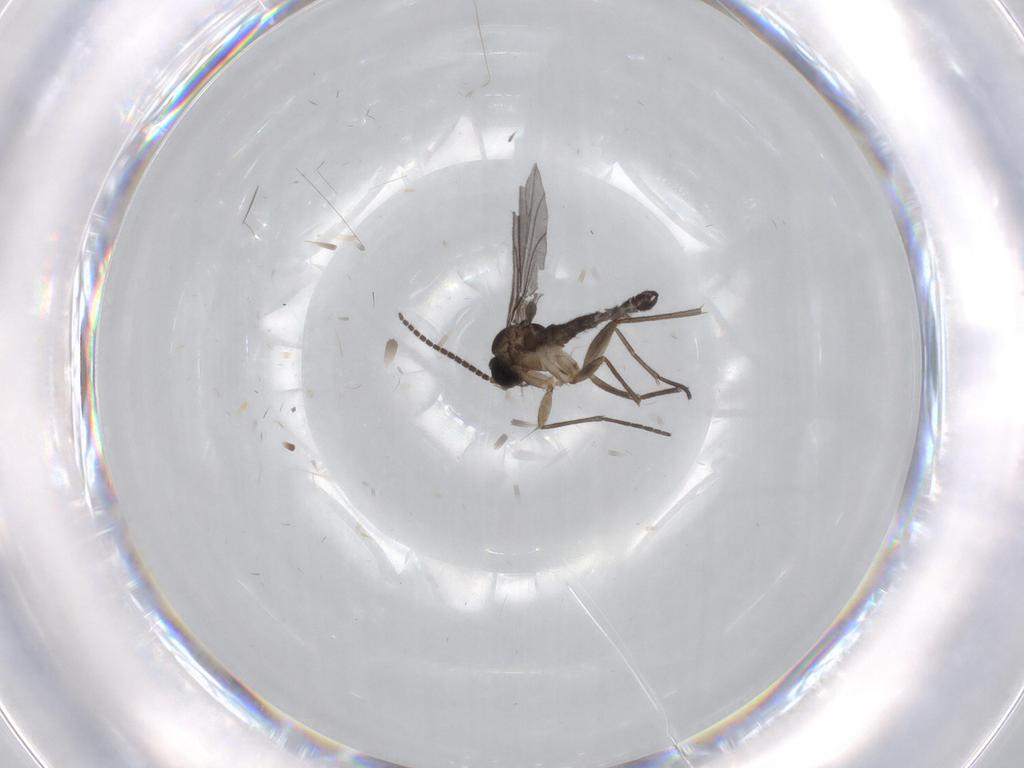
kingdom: Animalia
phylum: Arthropoda
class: Insecta
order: Diptera
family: Sciaridae
